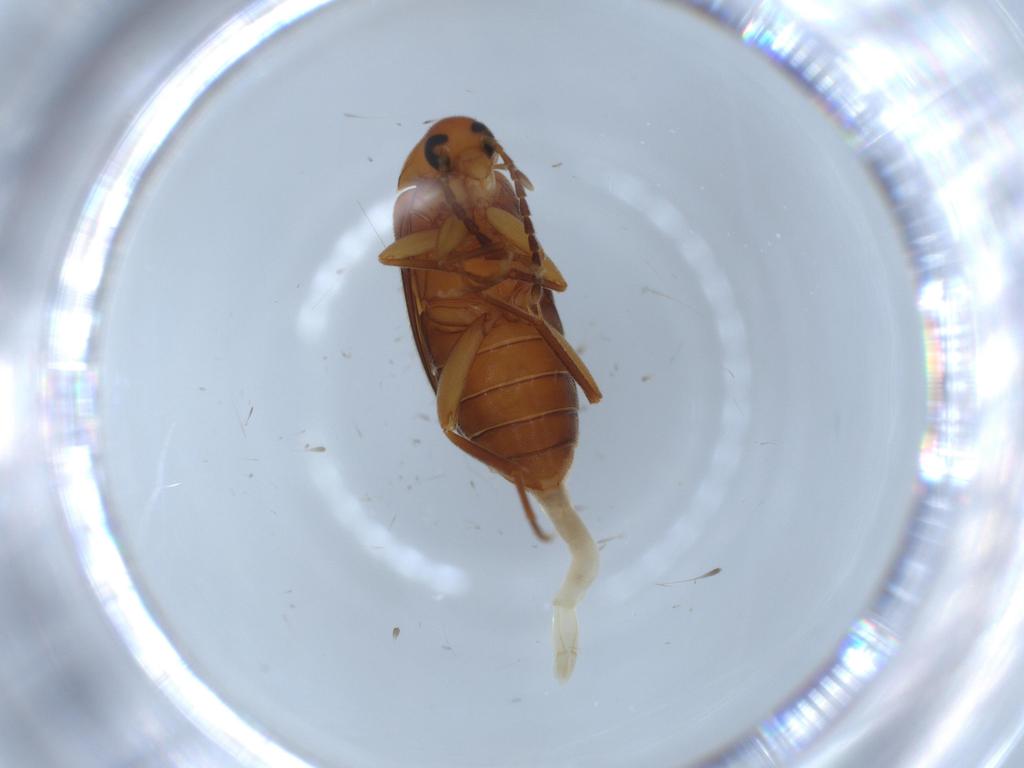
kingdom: Animalia
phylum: Arthropoda
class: Insecta
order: Coleoptera
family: Scraptiidae
